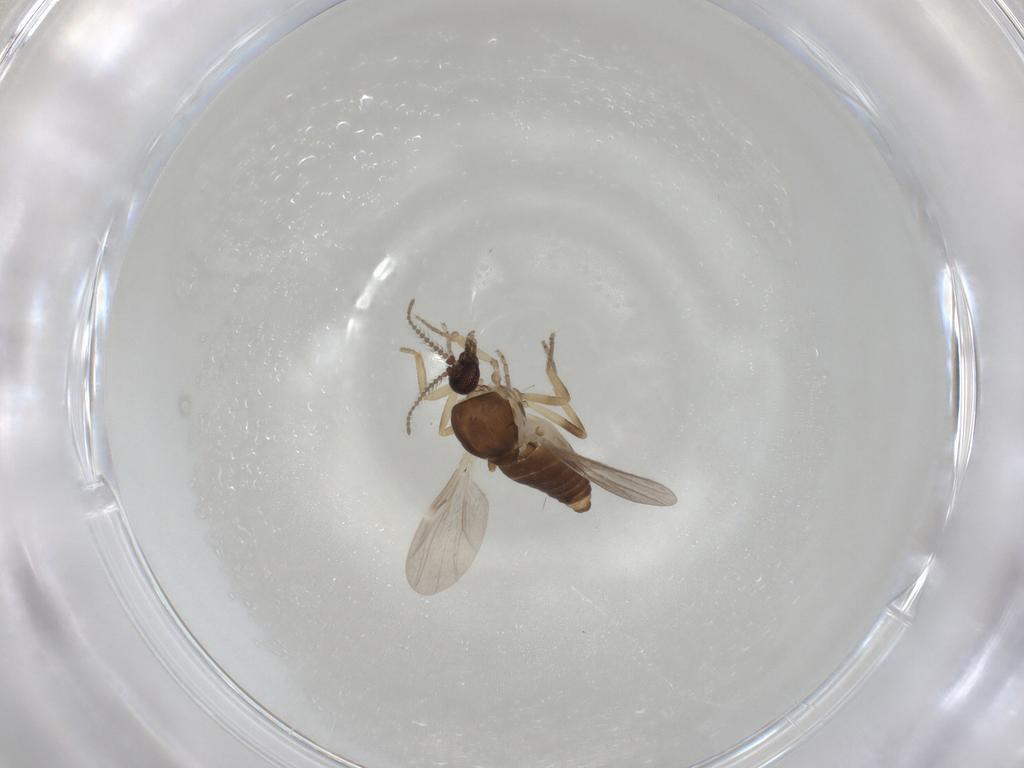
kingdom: Animalia
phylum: Arthropoda
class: Insecta
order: Diptera
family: Ceratopogonidae
